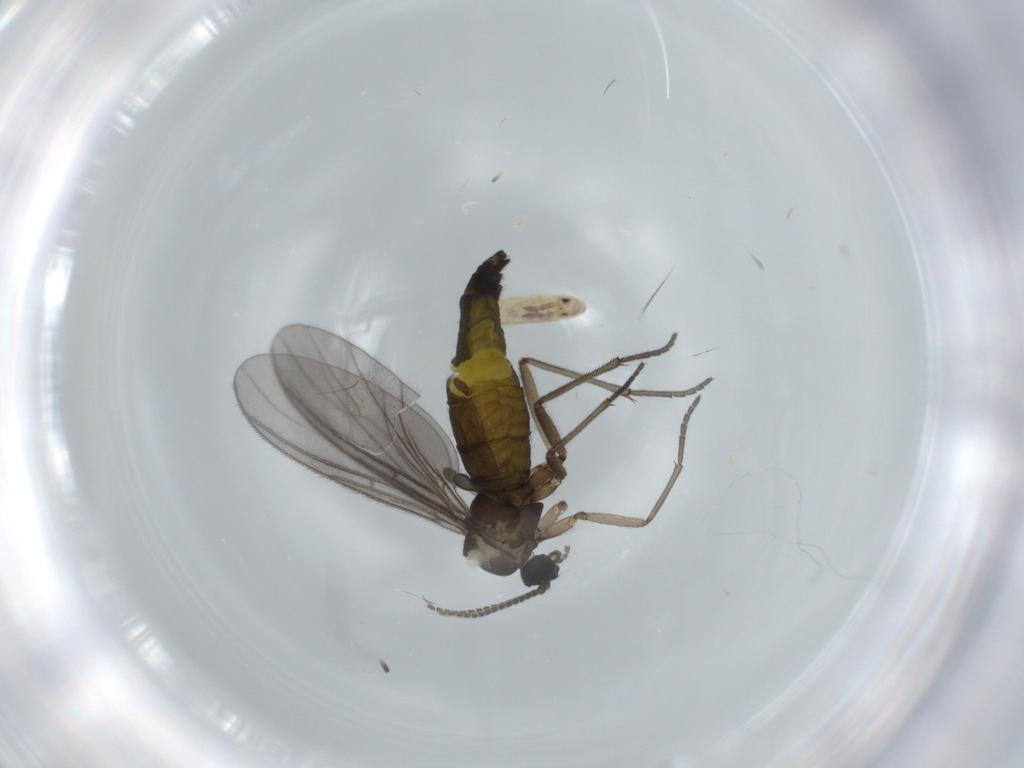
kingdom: Animalia
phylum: Arthropoda
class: Insecta
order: Diptera
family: Sciaridae
